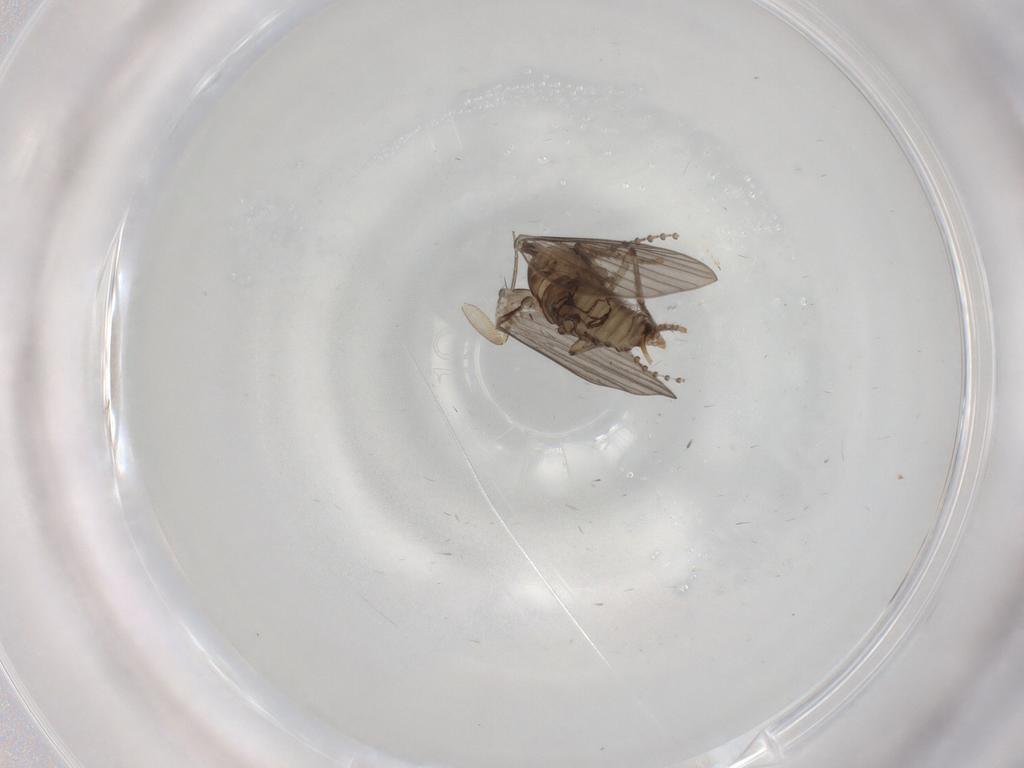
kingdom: Animalia
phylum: Arthropoda
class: Insecta
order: Diptera
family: Psychodidae
